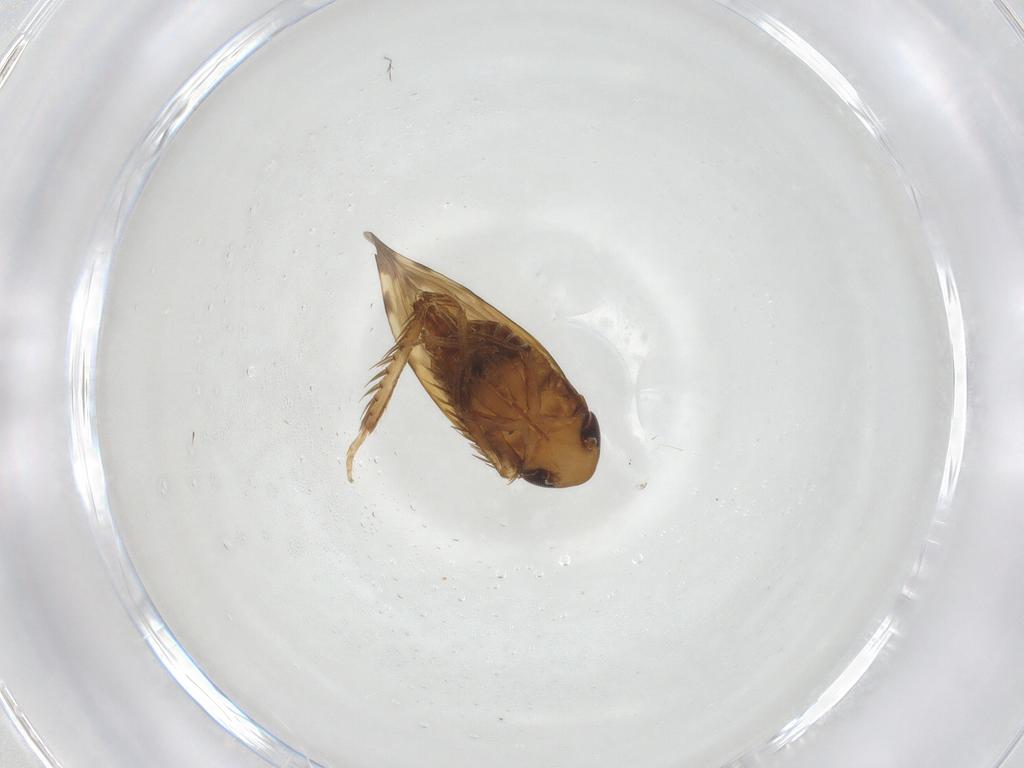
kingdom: Animalia
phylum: Arthropoda
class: Insecta
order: Hemiptera
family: Cicadellidae
